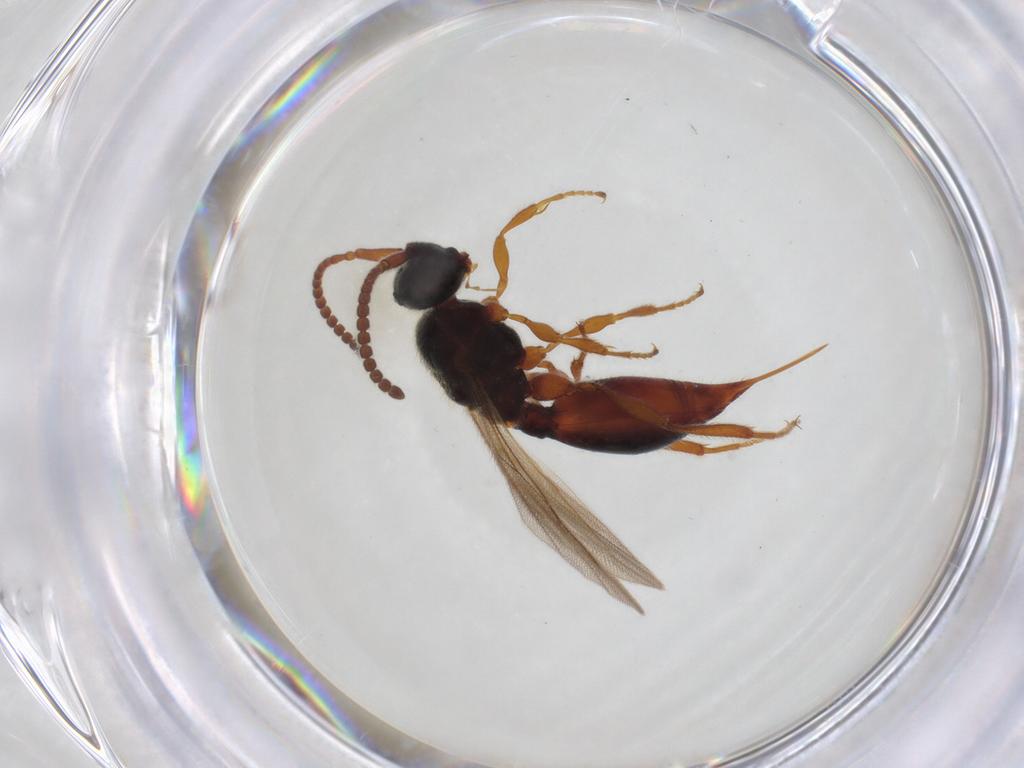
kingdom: Animalia
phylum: Arthropoda
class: Insecta
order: Hymenoptera
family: Diapriidae
